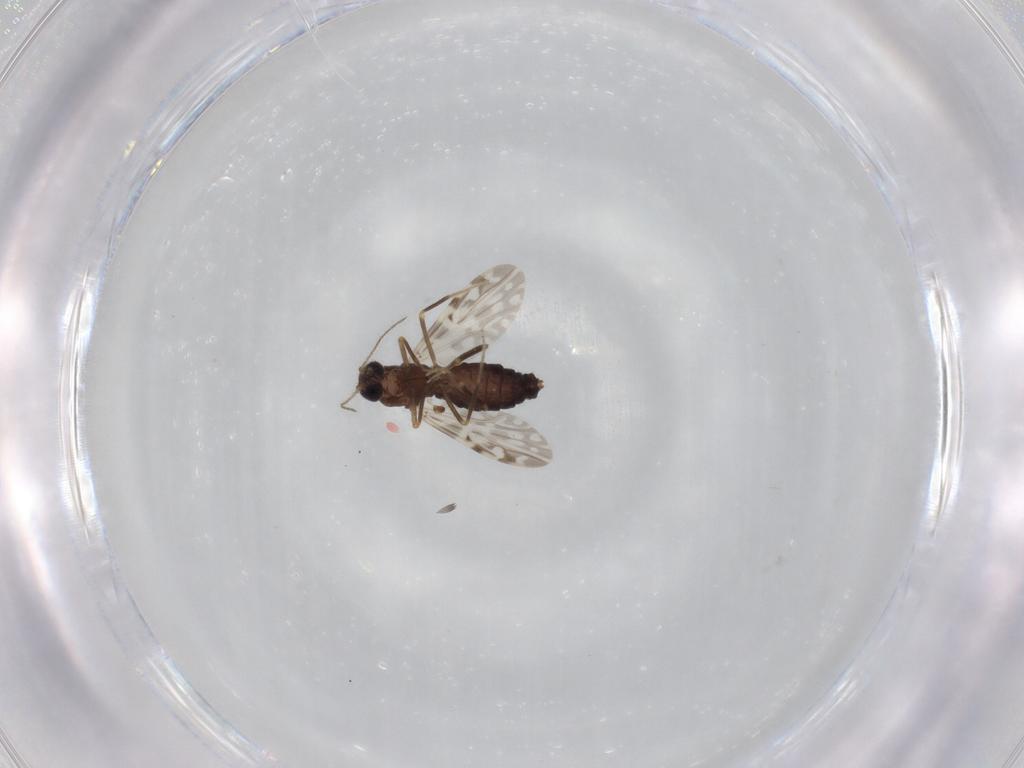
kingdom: Animalia
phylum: Arthropoda
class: Insecta
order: Diptera
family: Ceratopogonidae
